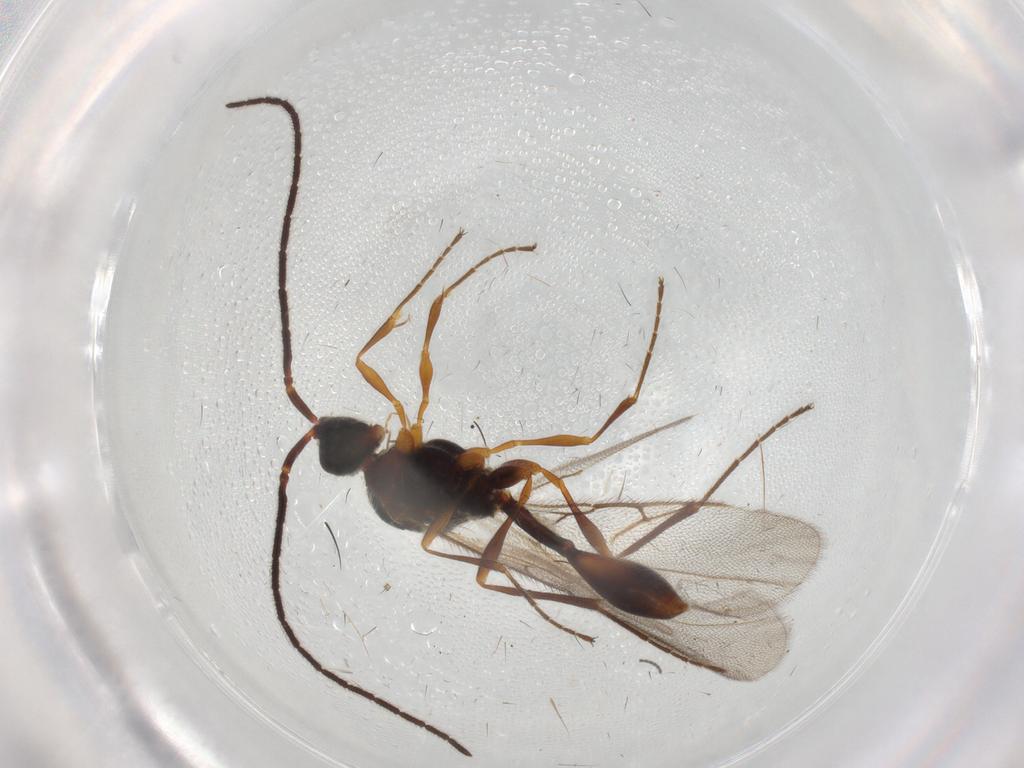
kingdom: Animalia
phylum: Arthropoda
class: Insecta
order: Hymenoptera
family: Diapriidae
